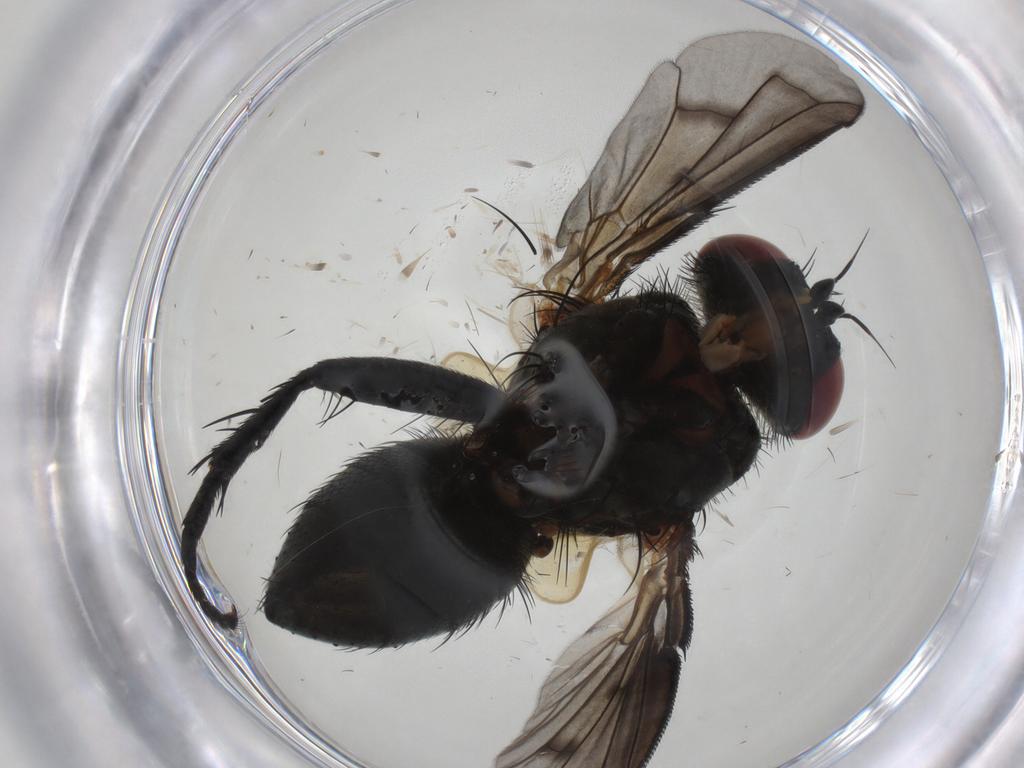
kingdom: Animalia
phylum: Arthropoda
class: Insecta
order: Diptera
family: Tachinidae
